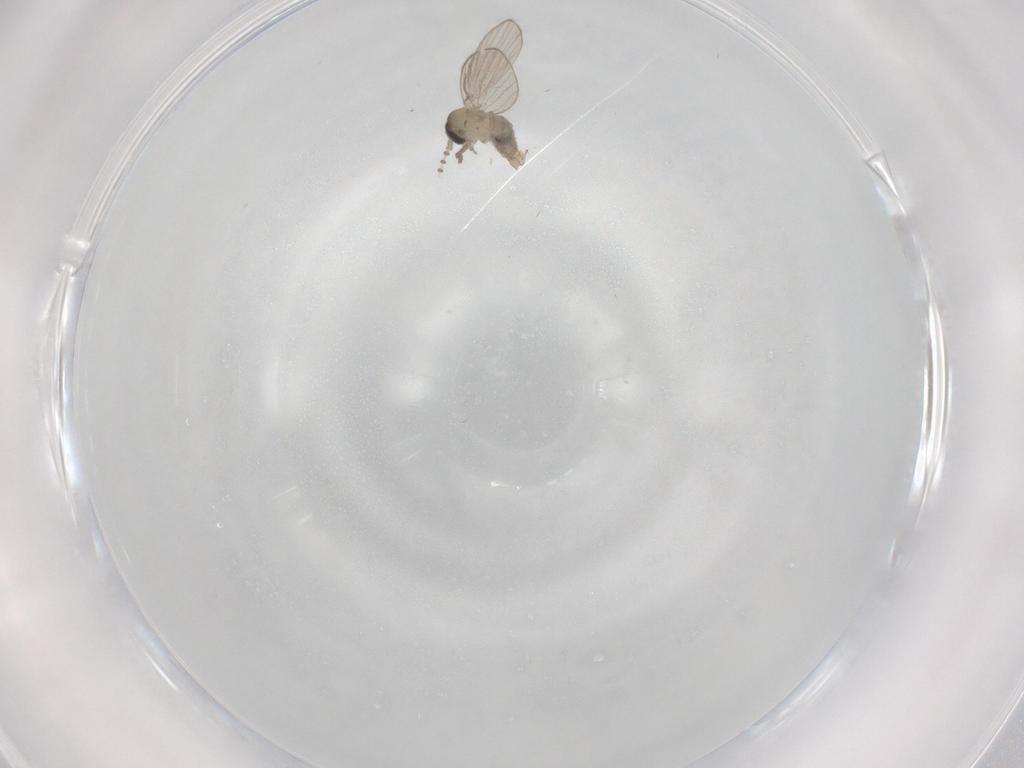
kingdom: Animalia
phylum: Arthropoda
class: Insecta
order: Diptera
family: Psychodidae
